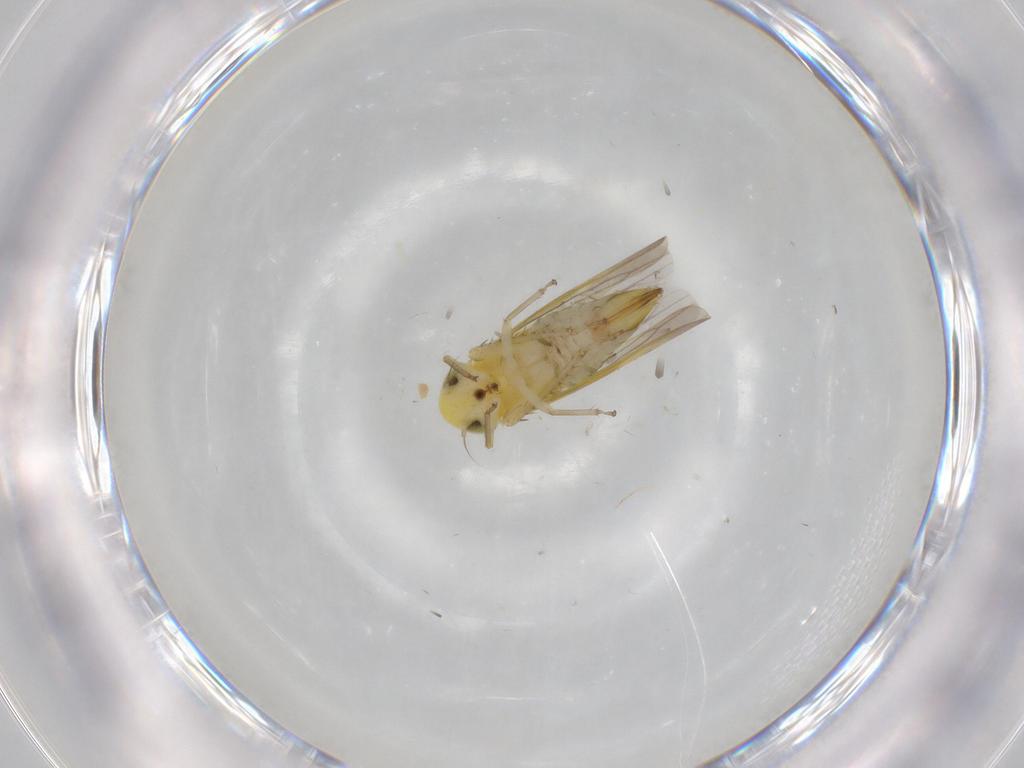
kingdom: Animalia
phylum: Arthropoda
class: Insecta
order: Hemiptera
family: Cicadellidae
